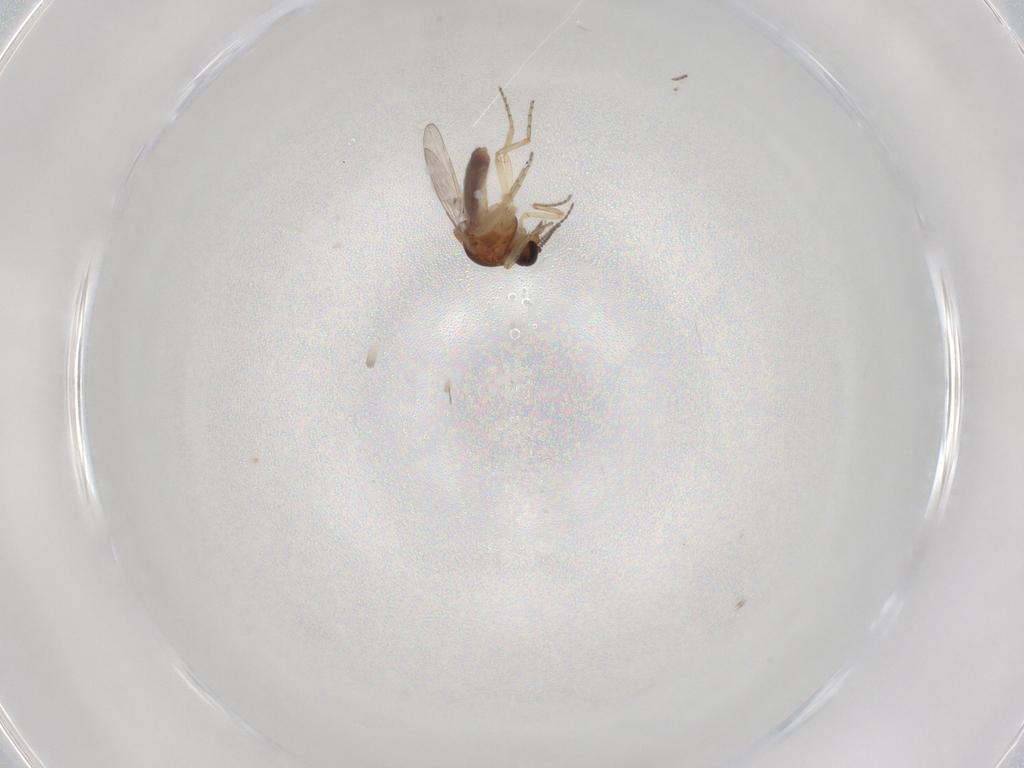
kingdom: Animalia
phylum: Arthropoda
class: Insecta
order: Diptera
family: Ceratopogonidae
